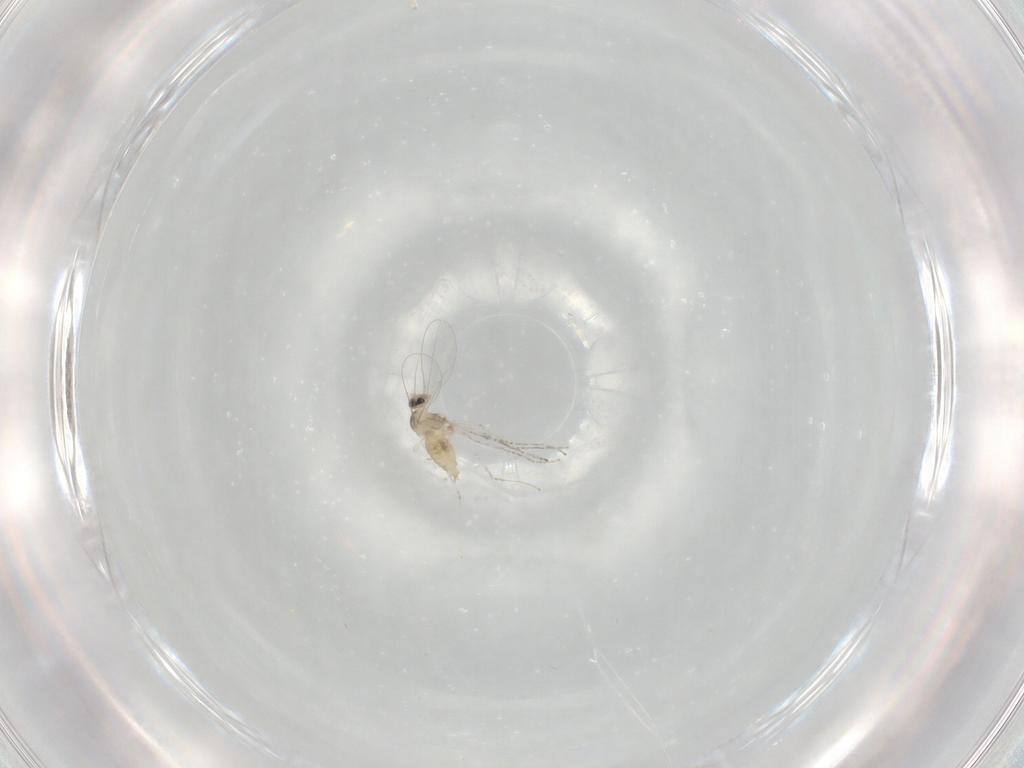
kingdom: Animalia
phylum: Arthropoda
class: Insecta
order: Diptera
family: Cecidomyiidae
